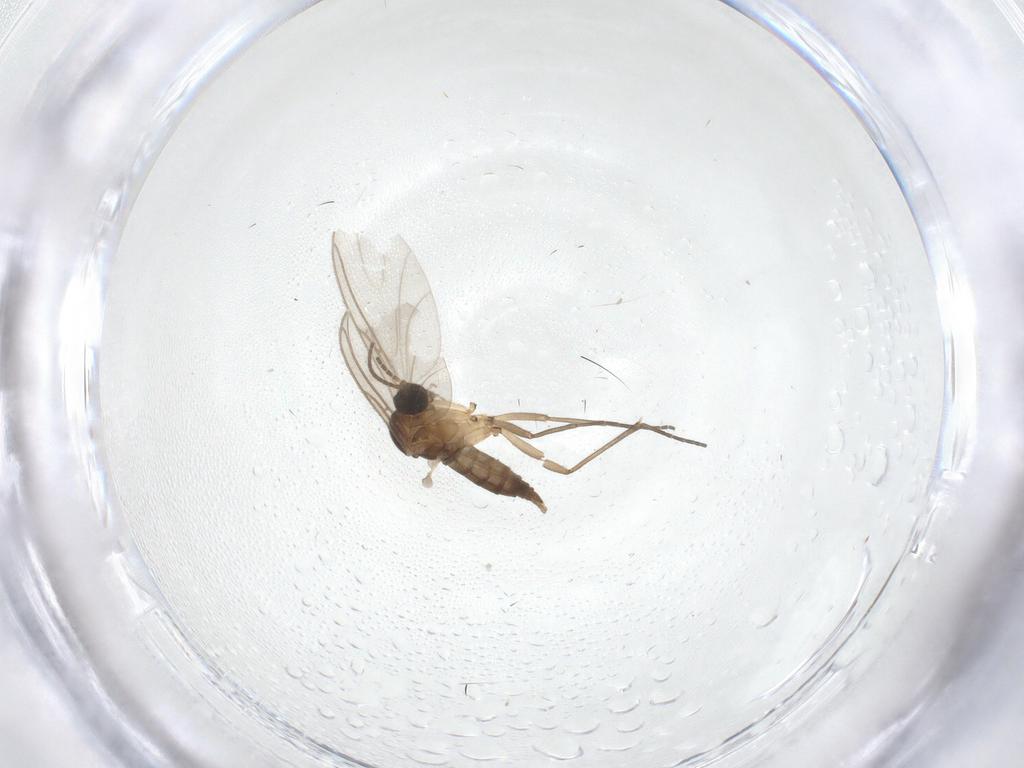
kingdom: Animalia
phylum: Arthropoda
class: Insecta
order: Diptera
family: Sciaridae
